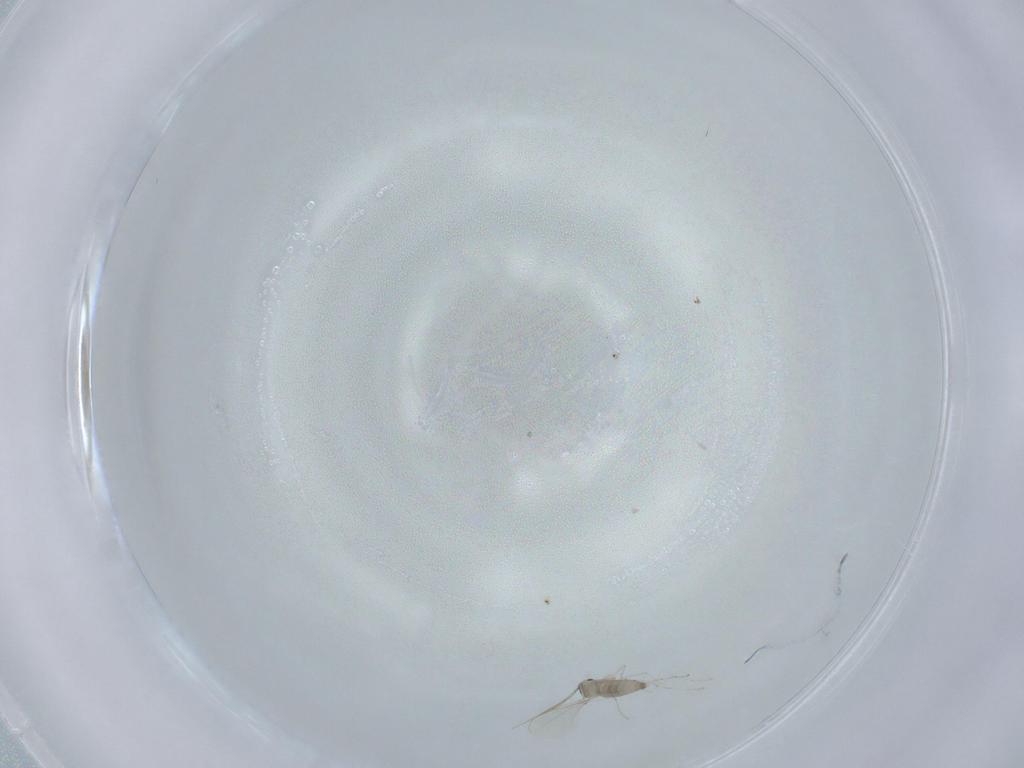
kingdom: Animalia
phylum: Arthropoda
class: Insecta
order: Diptera
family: Cecidomyiidae
